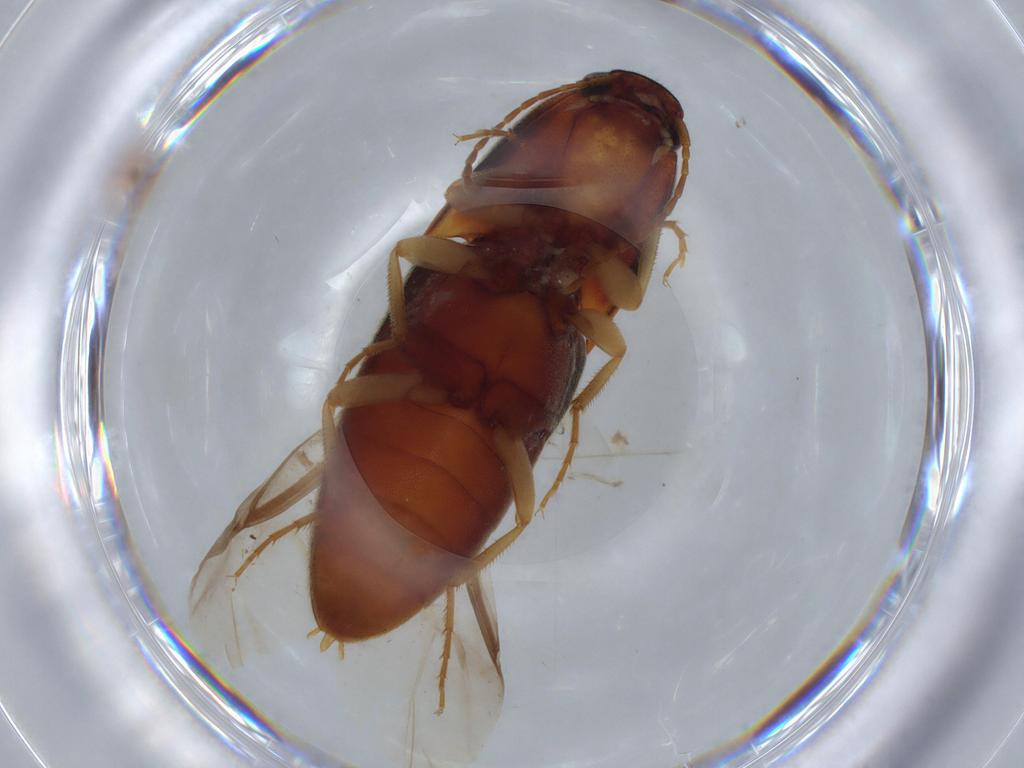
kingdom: Animalia
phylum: Arthropoda
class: Insecta
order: Coleoptera
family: Elateridae
